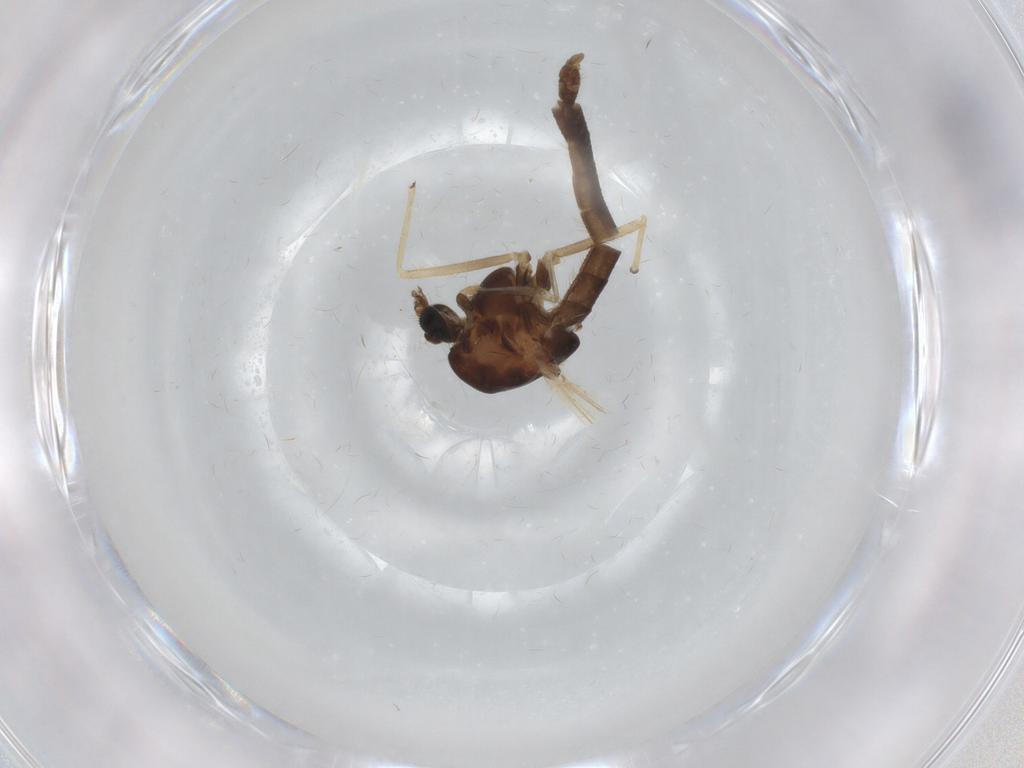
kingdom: Animalia
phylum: Arthropoda
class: Insecta
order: Diptera
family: Chironomidae
